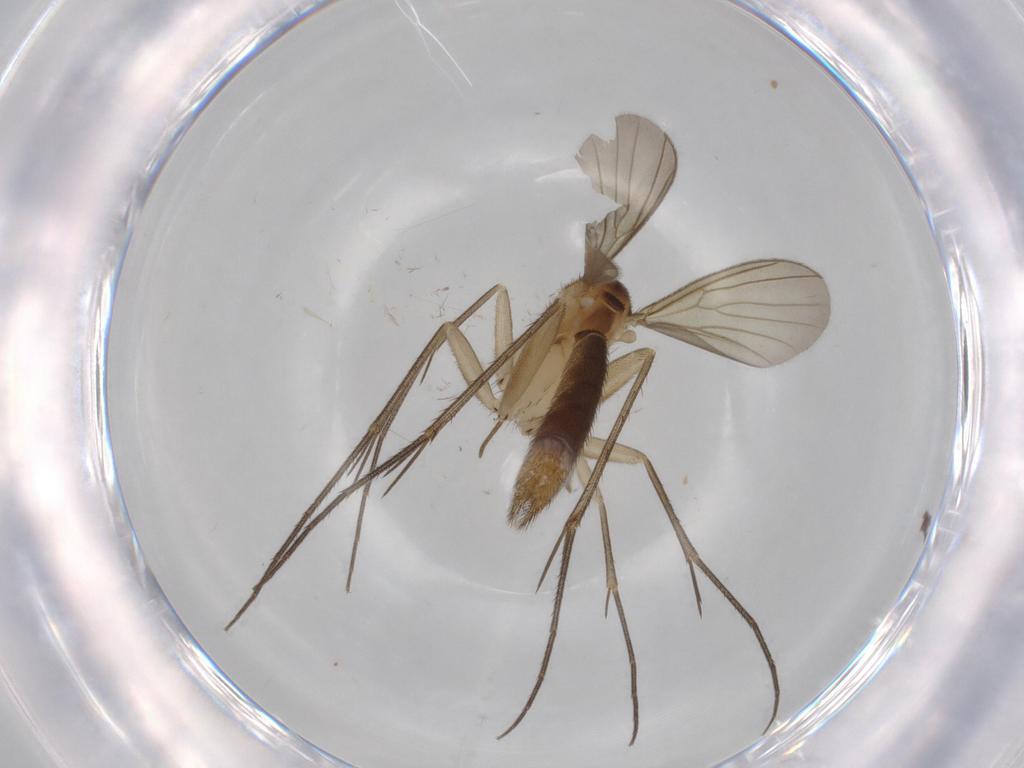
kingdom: Animalia
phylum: Arthropoda
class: Insecta
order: Diptera
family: Mycetophilidae
